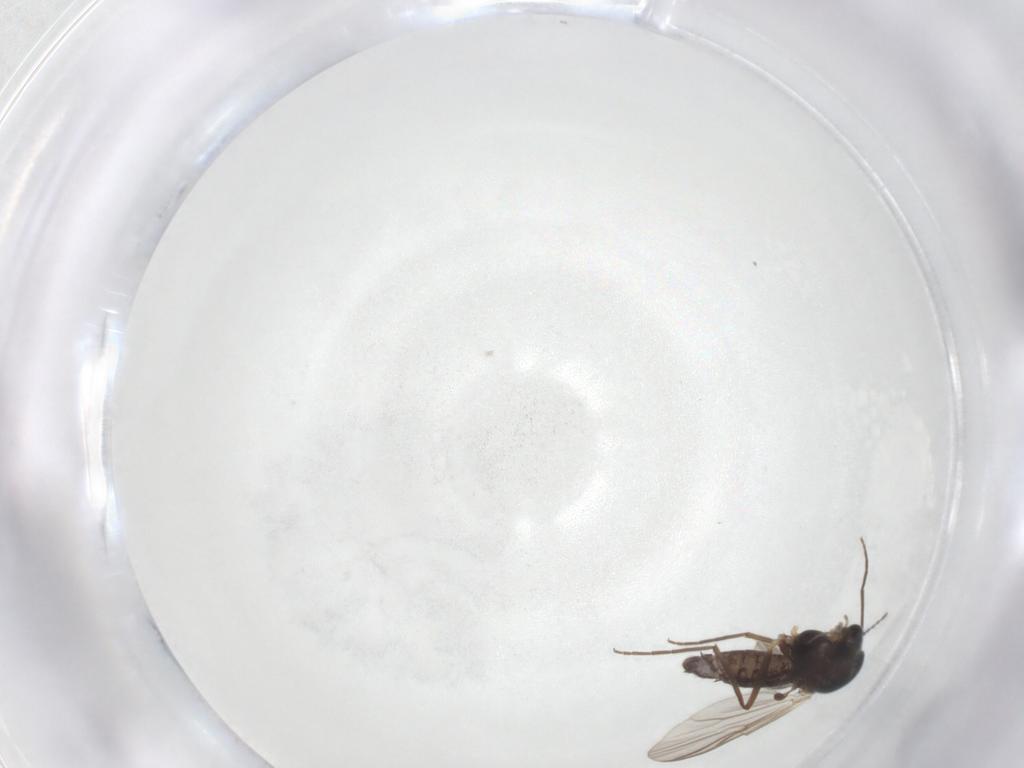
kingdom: Animalia
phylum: Arthropoda
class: Insecta
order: Diptera
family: Chironomidae
